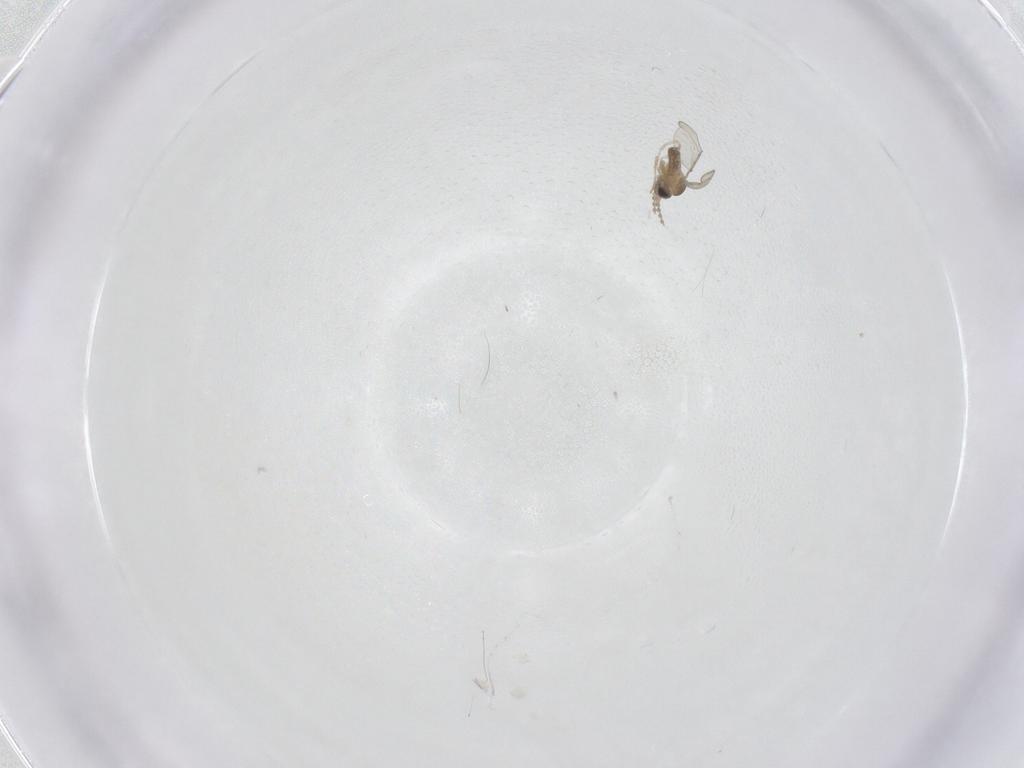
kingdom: Animalia
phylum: Arthropoda
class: Insecta
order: Diptera
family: Cecidomyiidae
